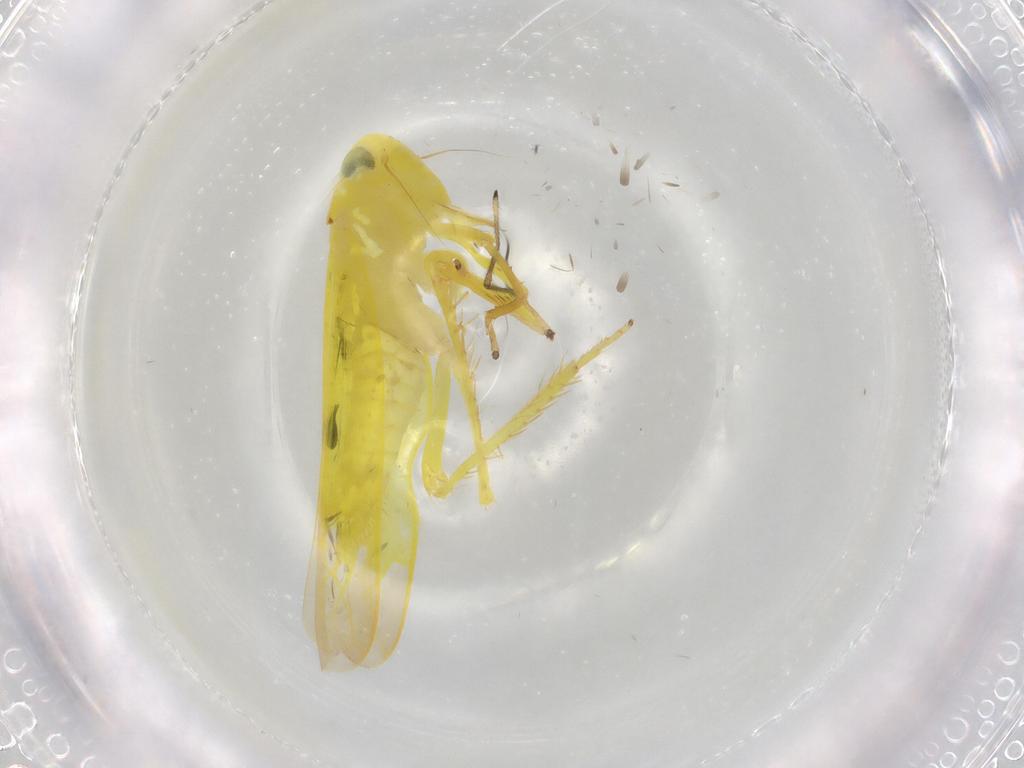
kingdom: Animalia
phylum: Arthropoda
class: Insecta
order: Hemiptera
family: Cicadellidae
